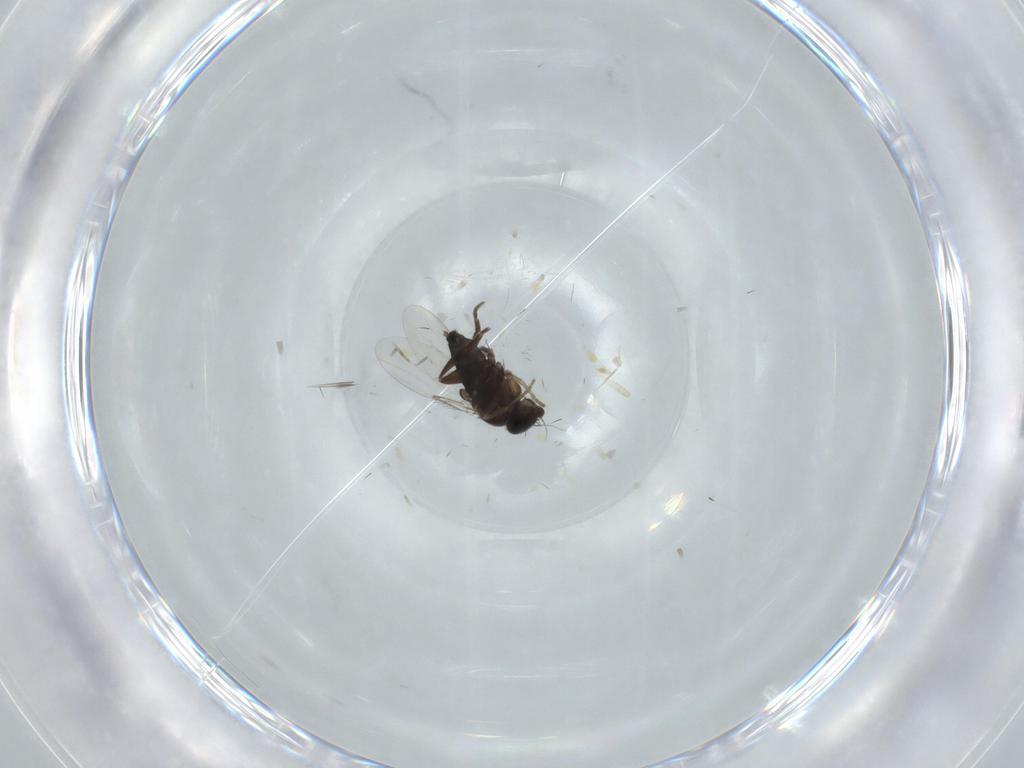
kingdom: Animalia
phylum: Arthropoda
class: Insecta
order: Diptera
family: Phoridae
